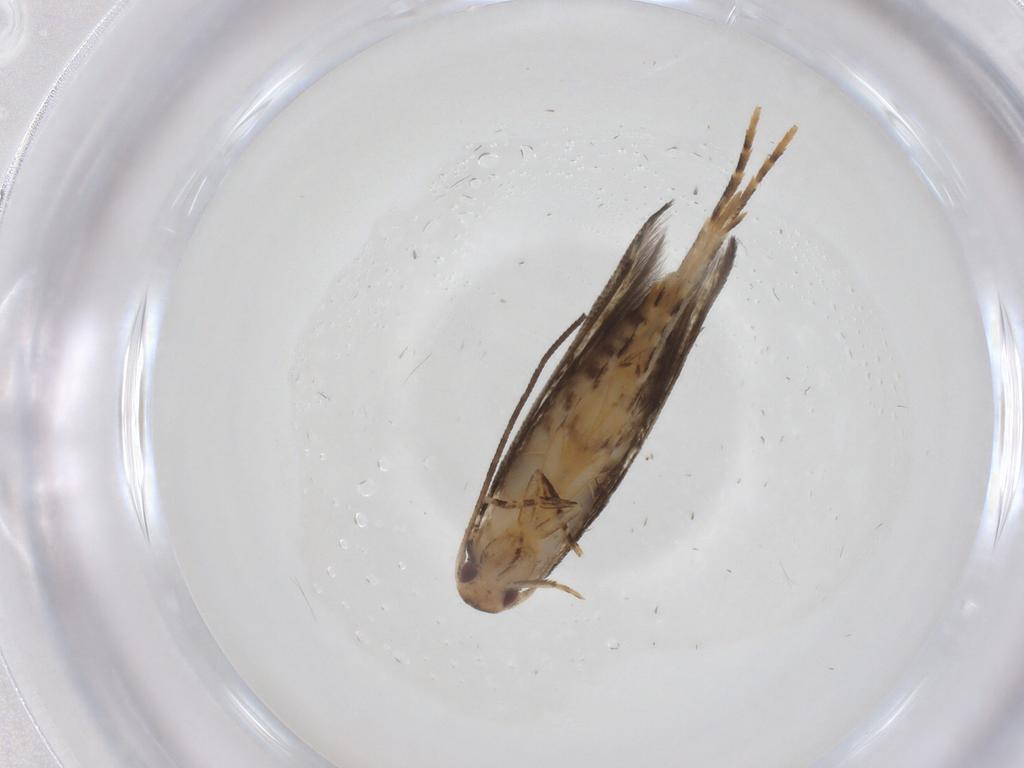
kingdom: Animalia
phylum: Arthropoda
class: Insecta
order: Lepidoptera
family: Momphidae
